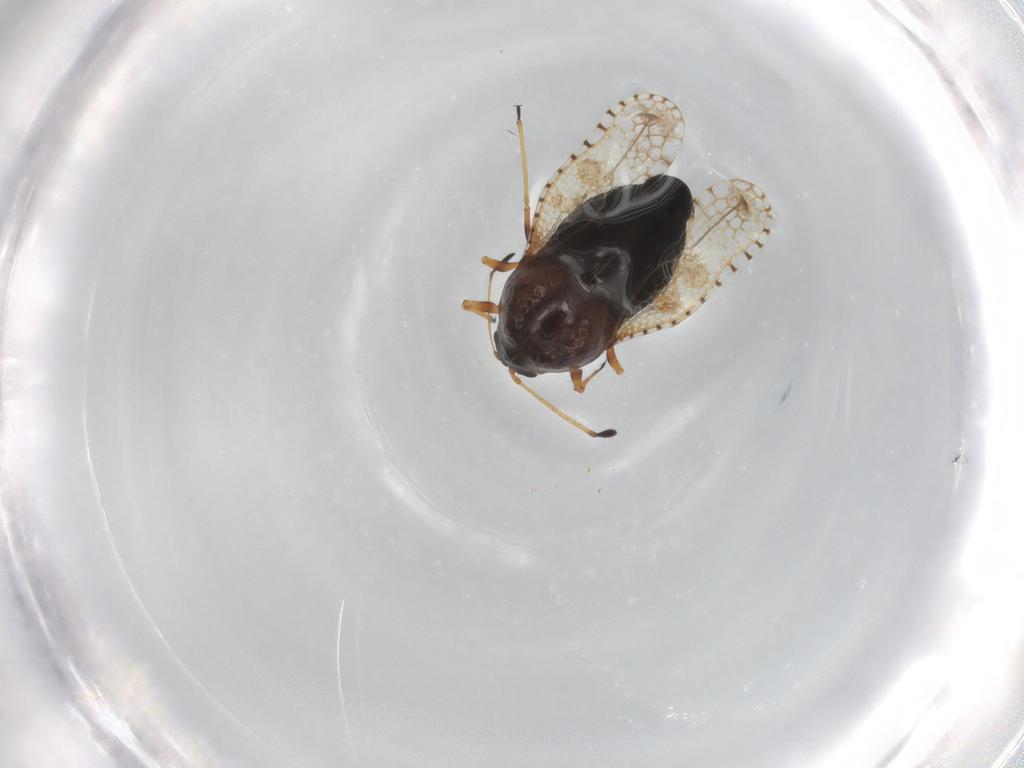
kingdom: Animalia
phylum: Arthropoda
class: Insecta
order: Hemiptera
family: Tingidae
